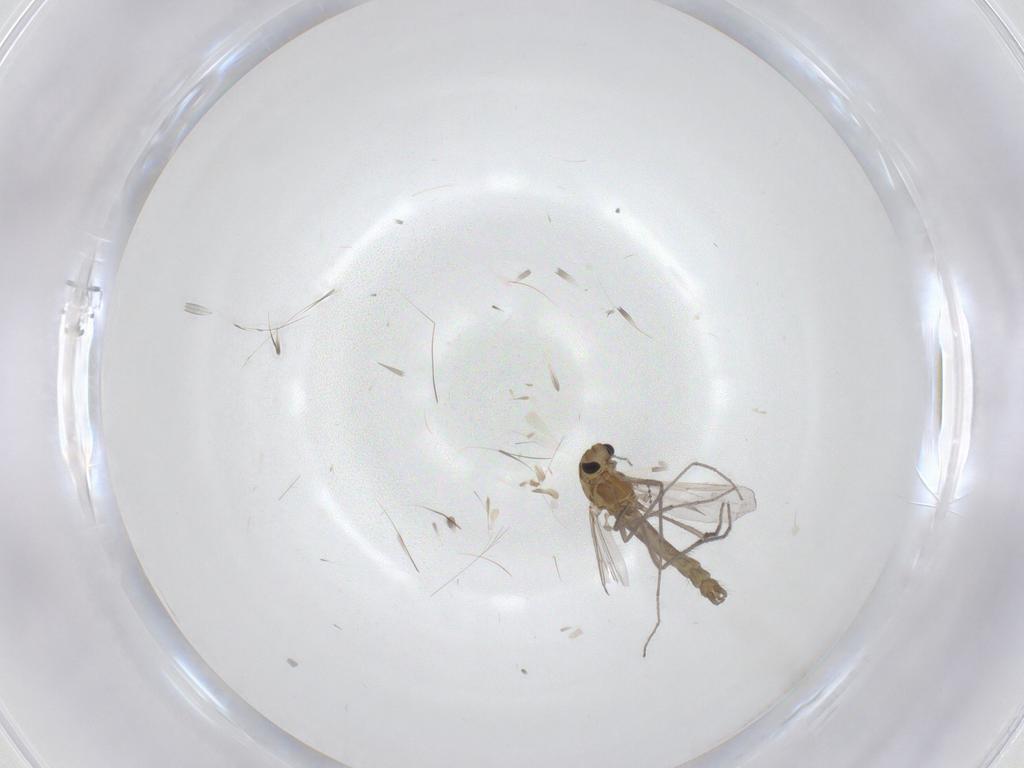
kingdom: Animalia
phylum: Arthropoda
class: Insecta
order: Diptera
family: Chironomidae
